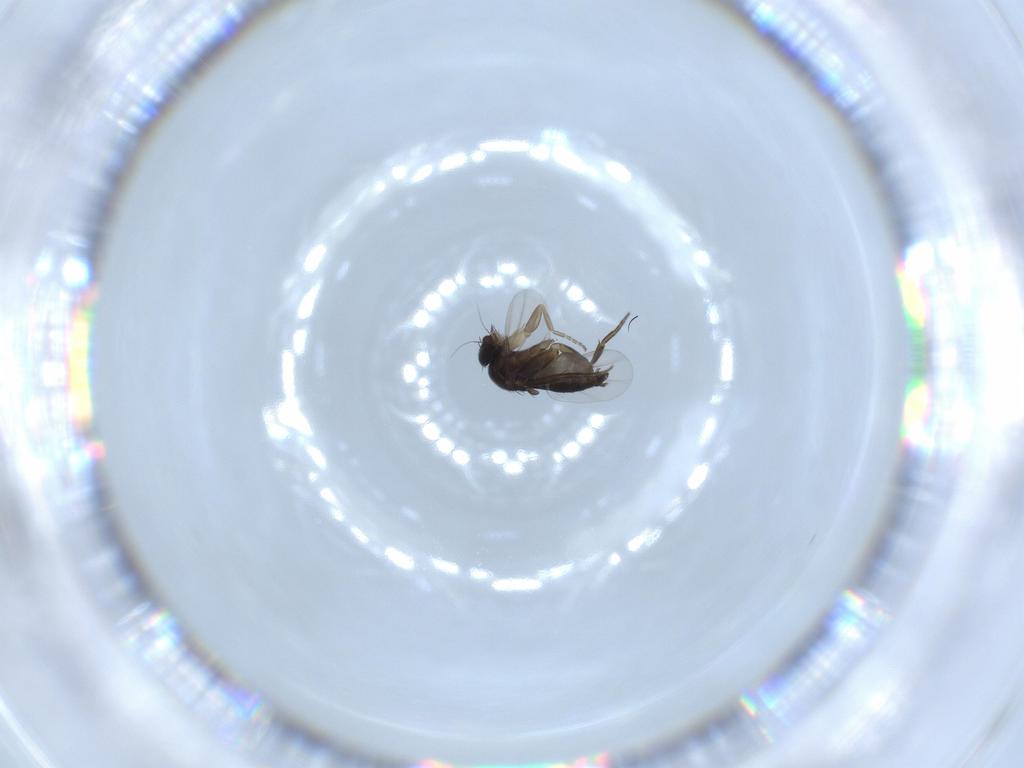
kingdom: Animalia
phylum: Arthropoda
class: Insecta
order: Diptera
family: Phoridae
